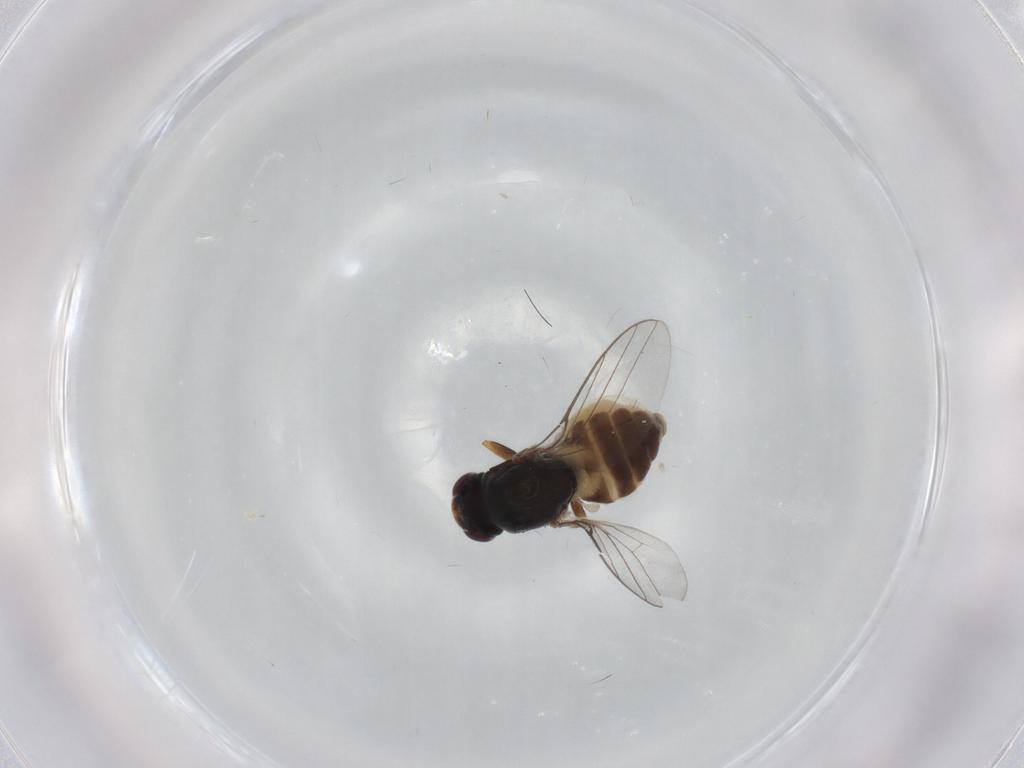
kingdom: Animalia
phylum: Arthropoda
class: Insecta
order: Diptera
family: Chloropidae
